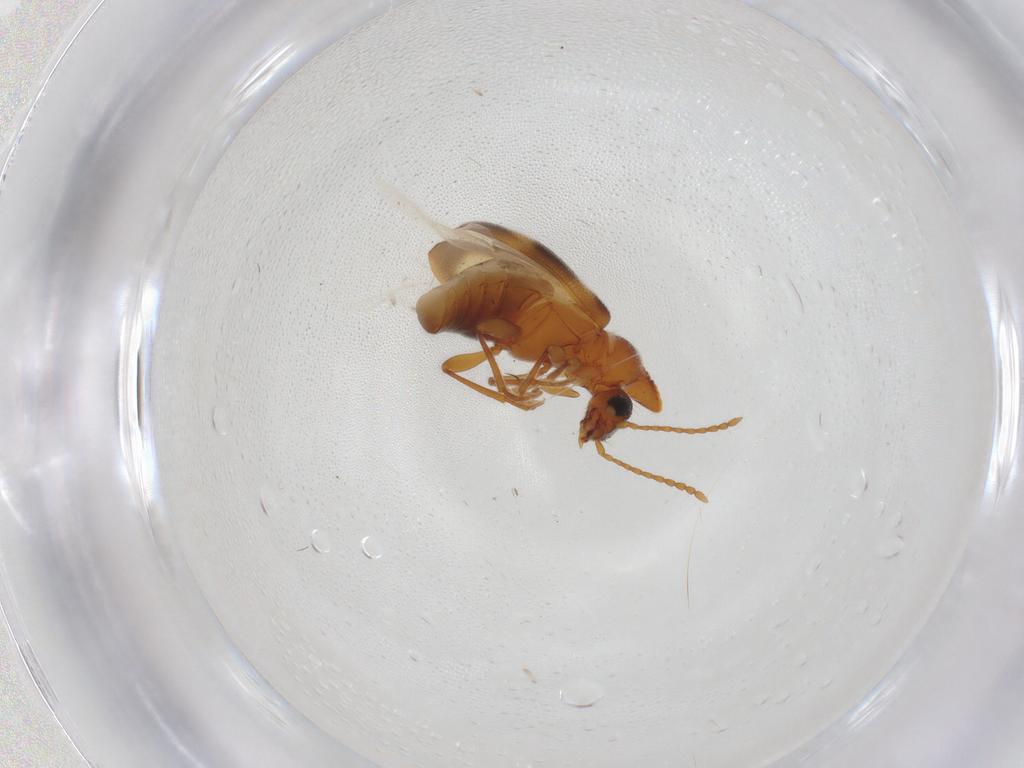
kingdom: Animalia
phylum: Arthropoda
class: Insecta
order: Coleoptera
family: Anthicidae
